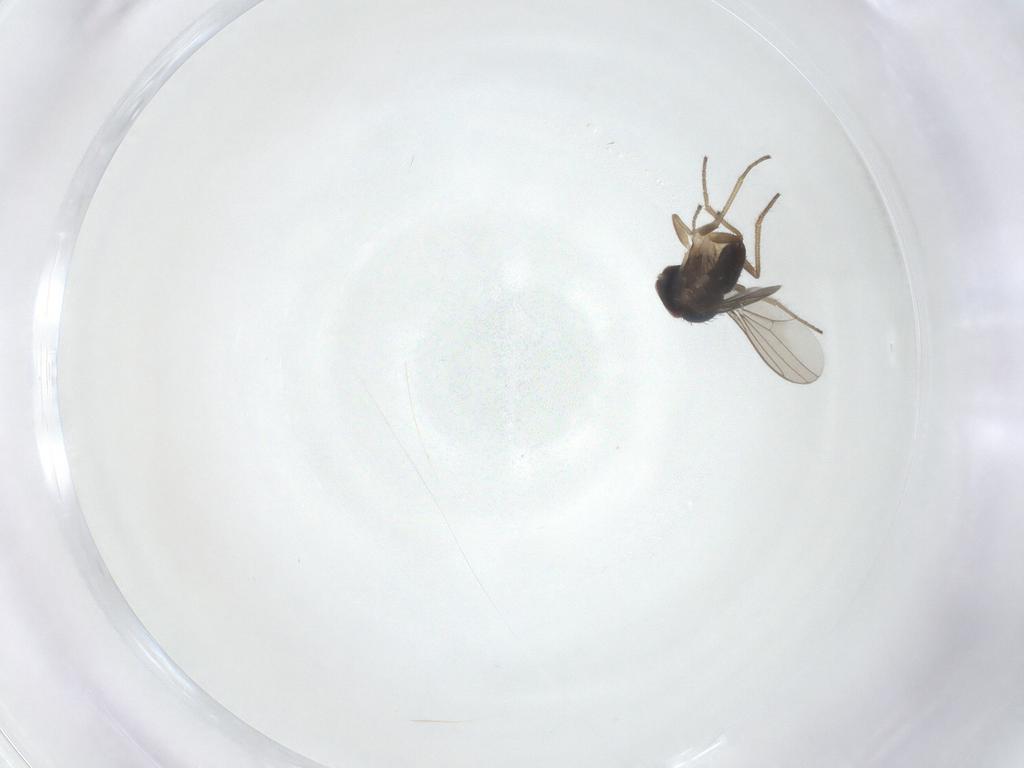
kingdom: Animalia
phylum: Arthropoda
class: Insecta
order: Diptera
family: Dolichopodidae
